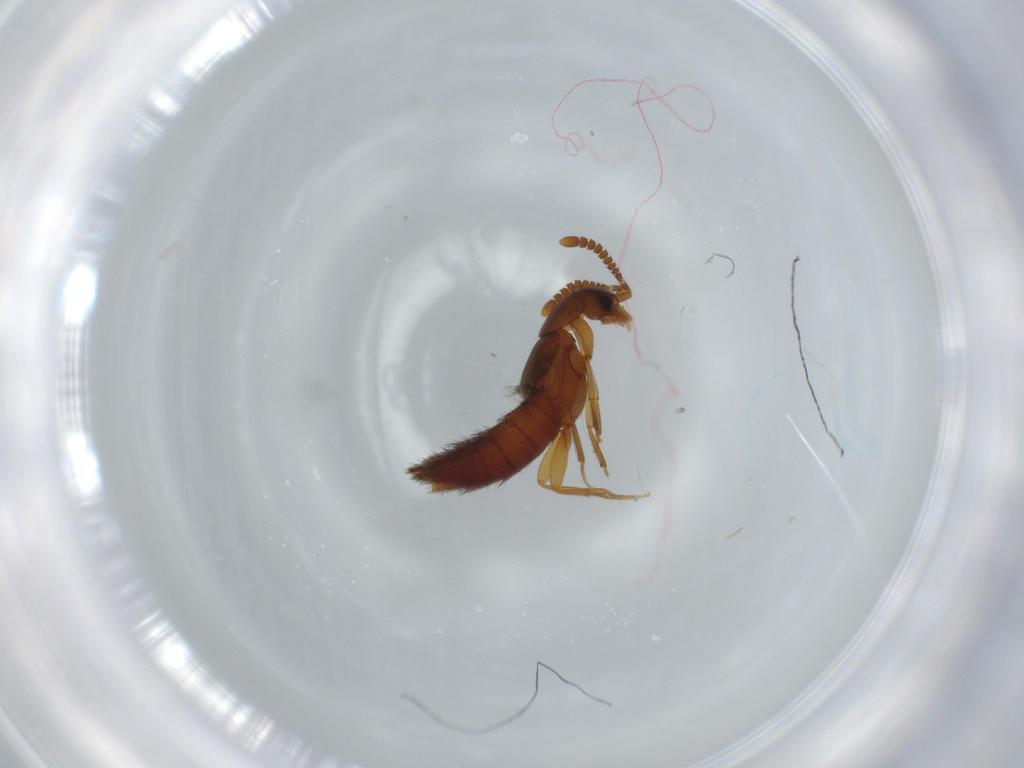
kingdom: Animalia
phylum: Arthropoda
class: Insecta
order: Coleoptera
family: Staphylinidae
